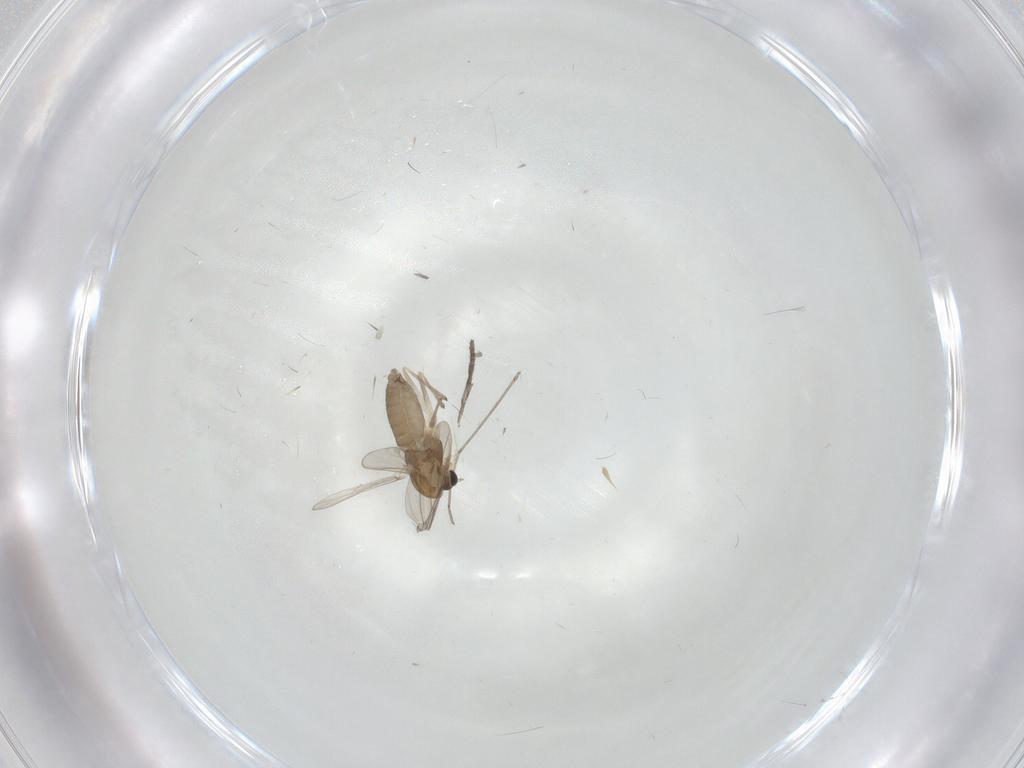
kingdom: Animalia
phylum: Arthropoda
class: Insecta
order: Diptera
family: Chironomidae
